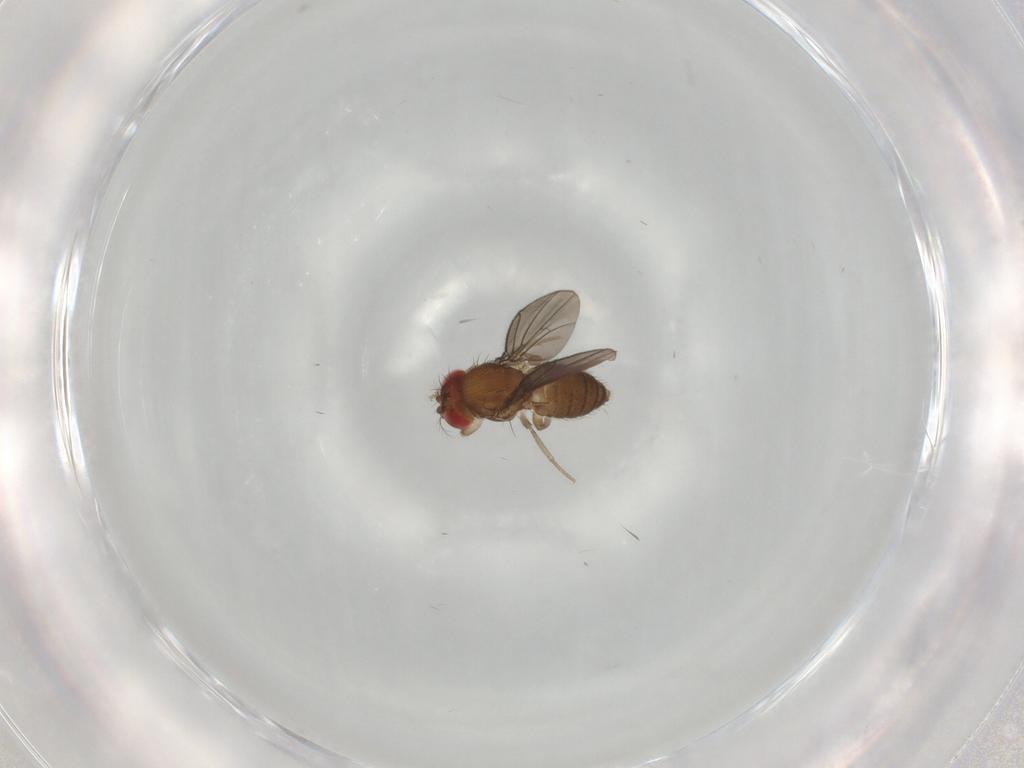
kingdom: Animalia
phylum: Arthropoda
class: Insecta
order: Diptera
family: Drosophilidae
